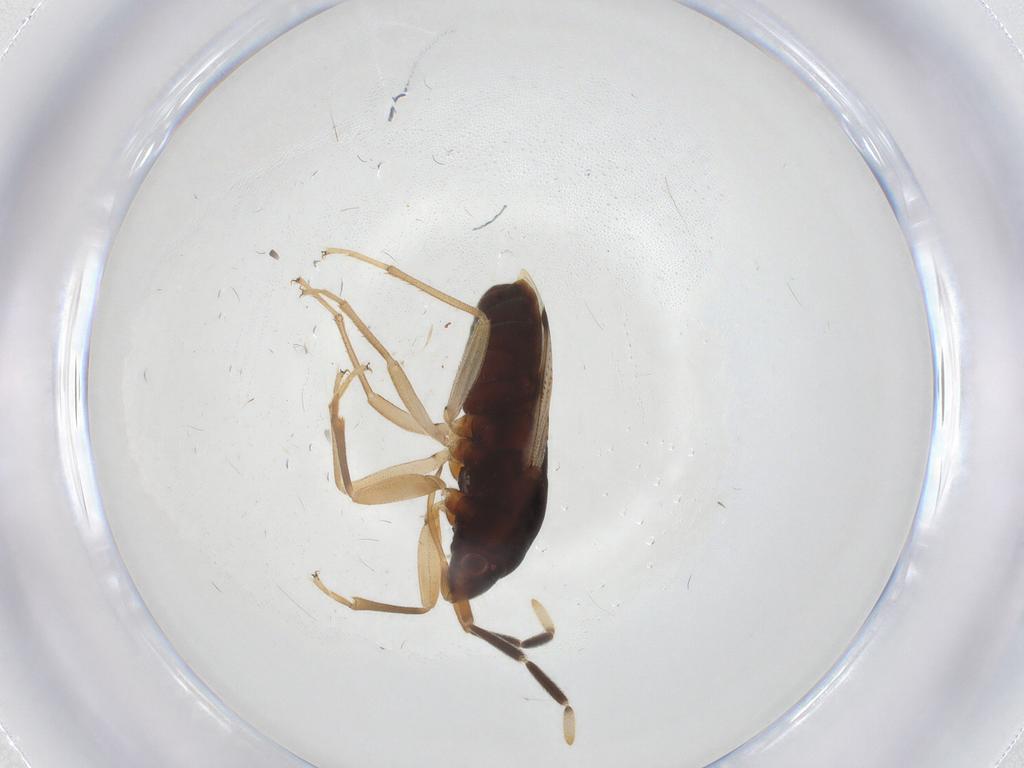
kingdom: Animalia
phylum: Arthropoda
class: Insecta
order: Hemiptera
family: Rhyparochromidae
